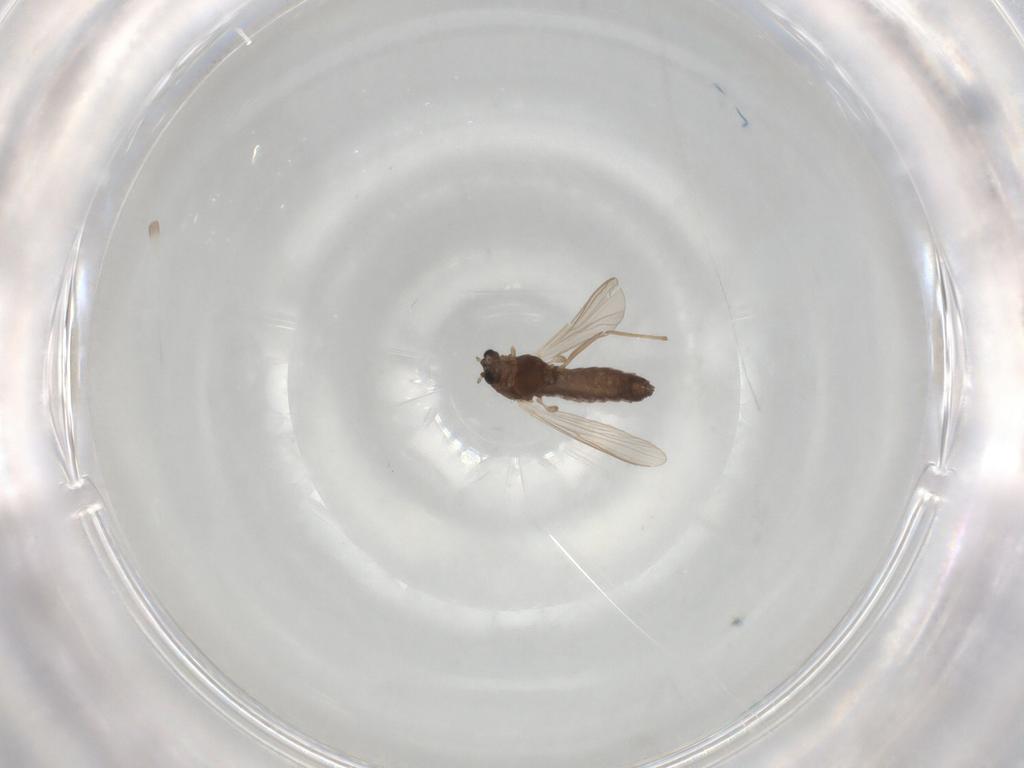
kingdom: Animalia
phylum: Arthropoda
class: Insecta
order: Diptera
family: Chironomidae
